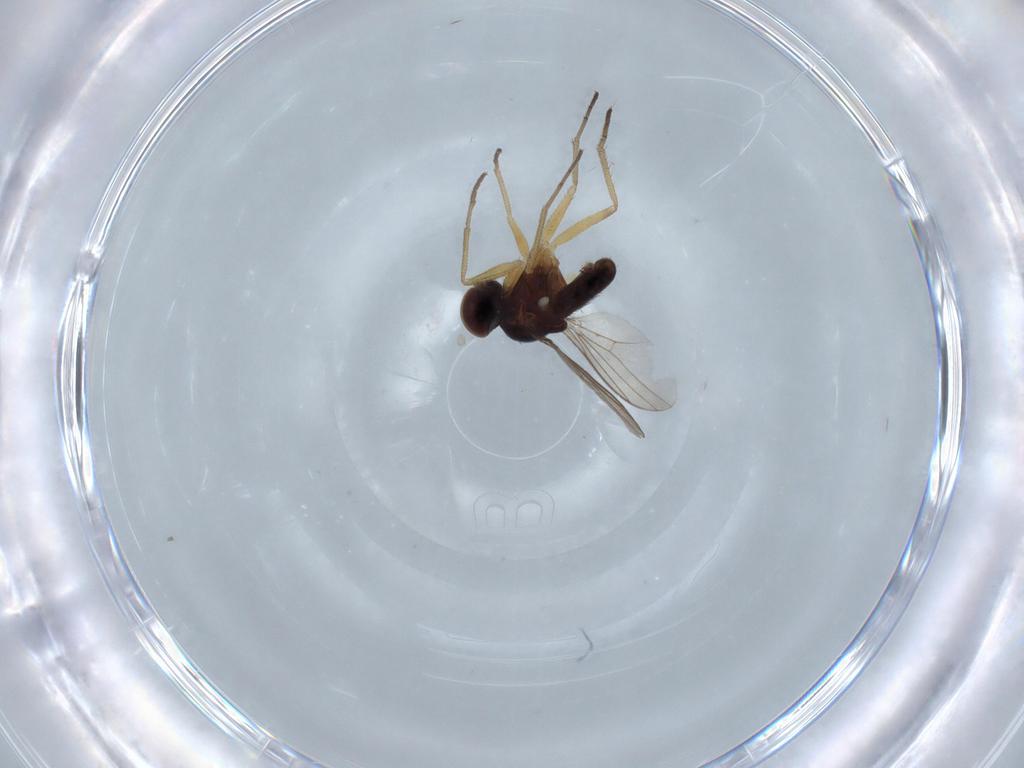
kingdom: Animalia
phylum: Arthropoda
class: Insecta
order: Diptera
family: Dolichopodidae
